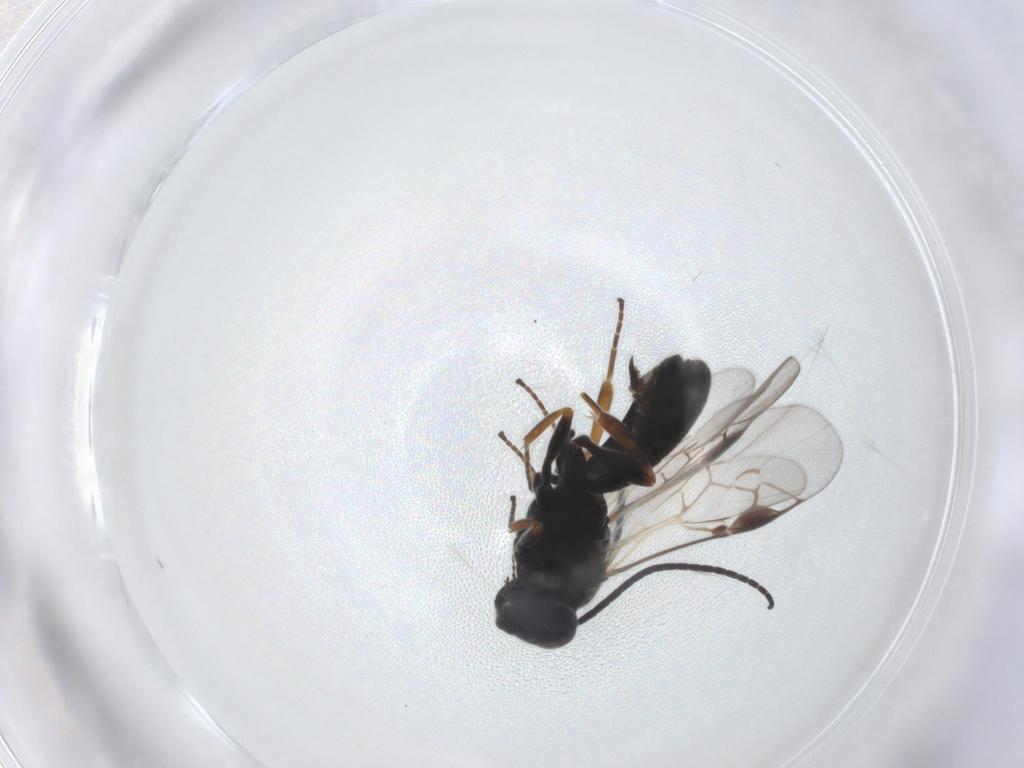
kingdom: Animalia
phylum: Arthropoda
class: Insecta
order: Hymenoptera
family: Braconidae
